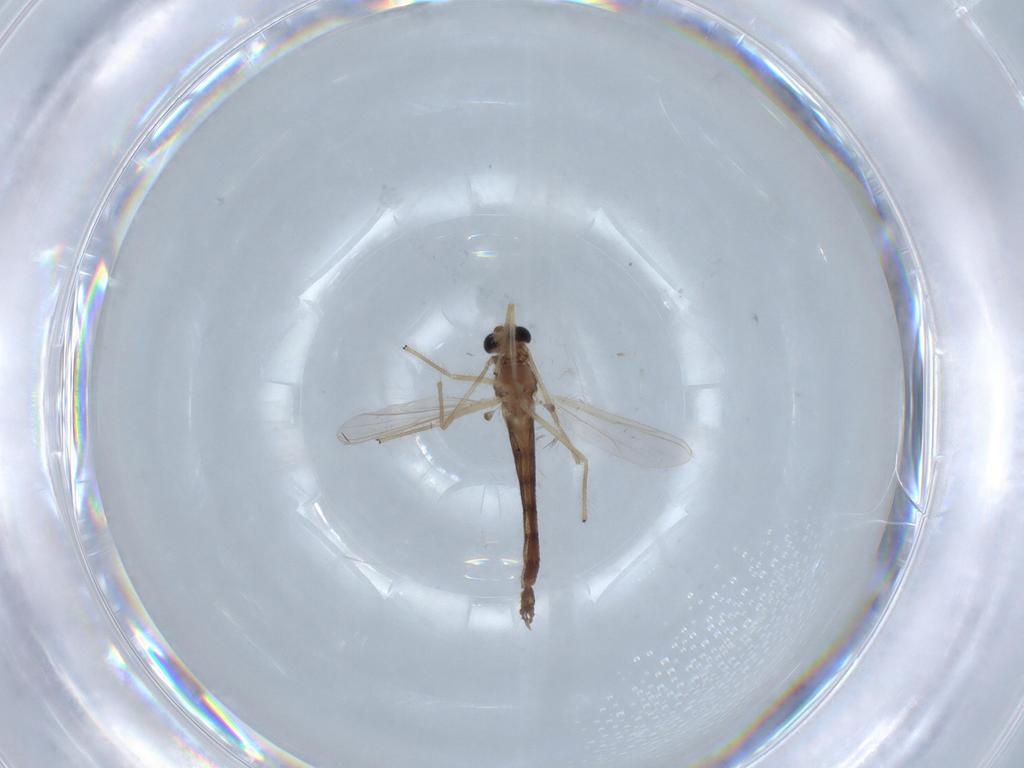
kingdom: Animalia
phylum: Arthropoda
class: Insecta
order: Diptera
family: Chironomidae
